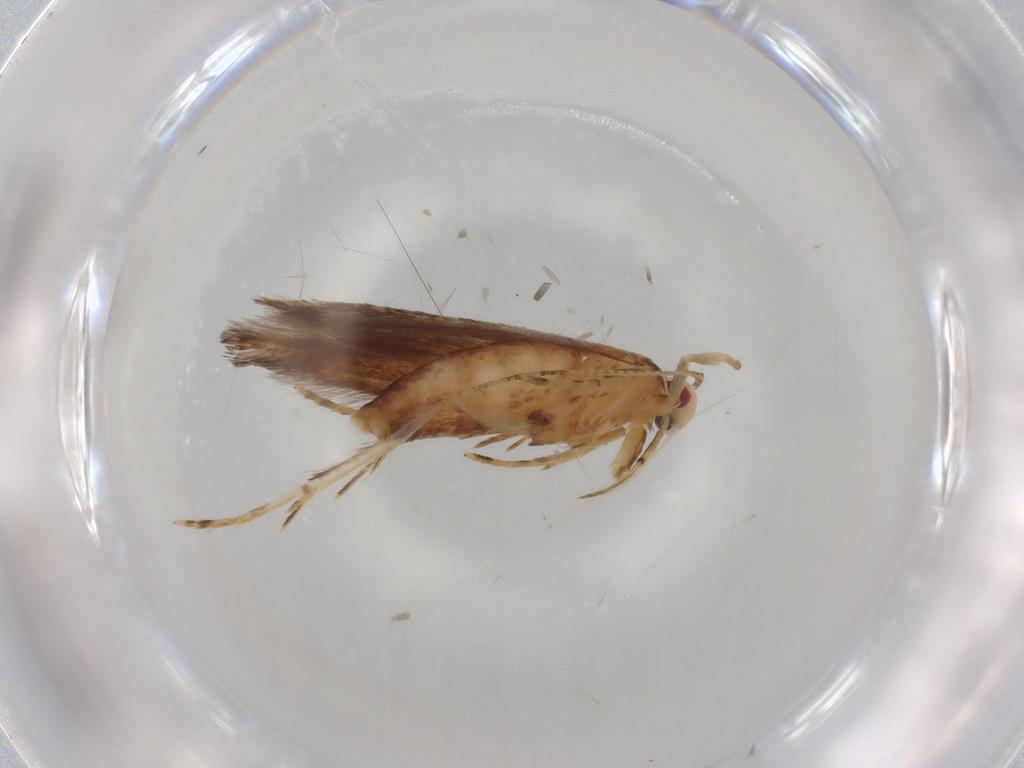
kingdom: Animalia
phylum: Arthropoda
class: Insecta
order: Lepidoptera
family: Cosmopterigidae
